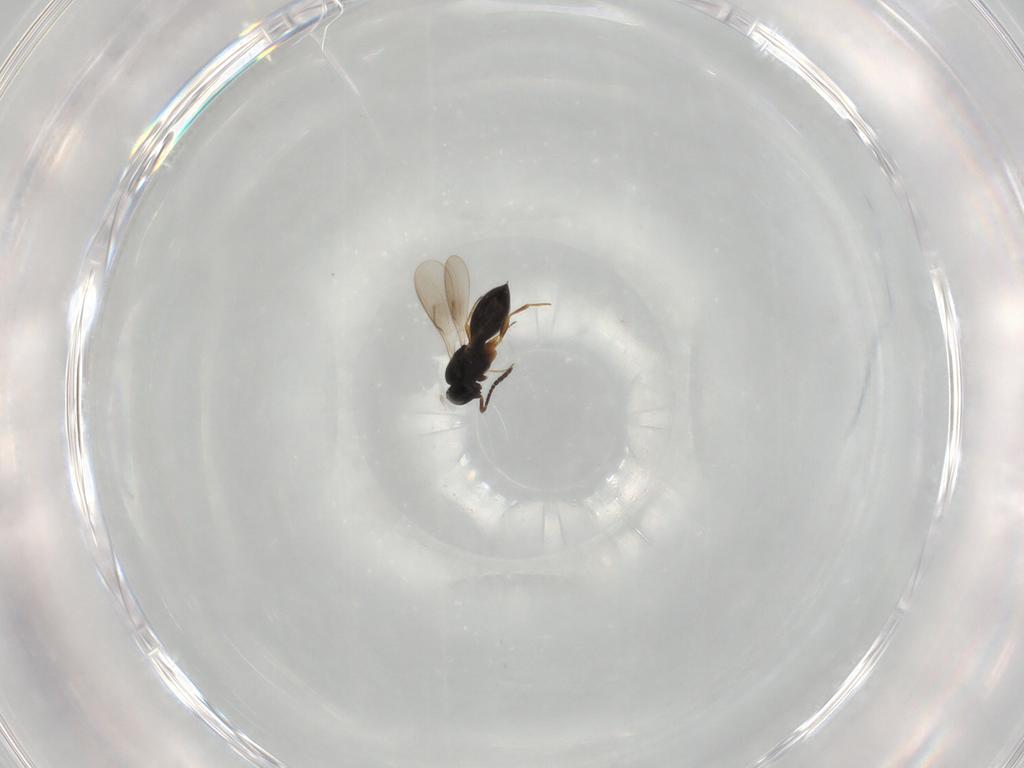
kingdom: Animalia
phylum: Arthropoda
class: Insecta
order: Hymenoptera
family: Scelionidae
